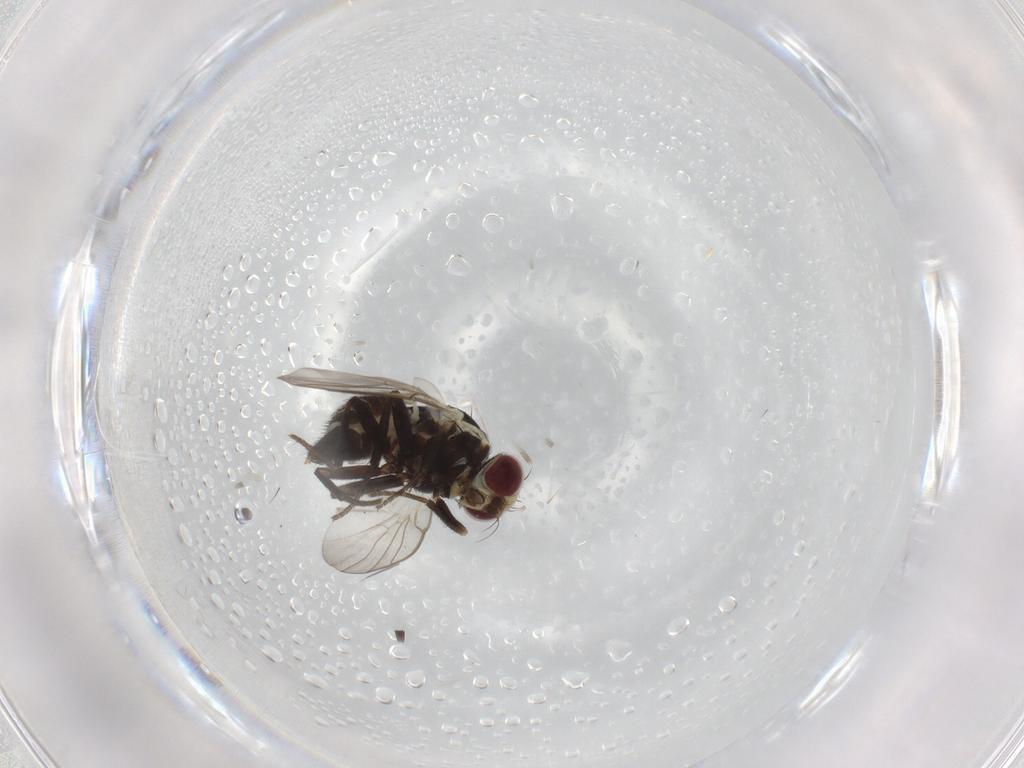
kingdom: Animalia
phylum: Arthropoda
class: Insecta
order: Diptera
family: Agromyzidae
